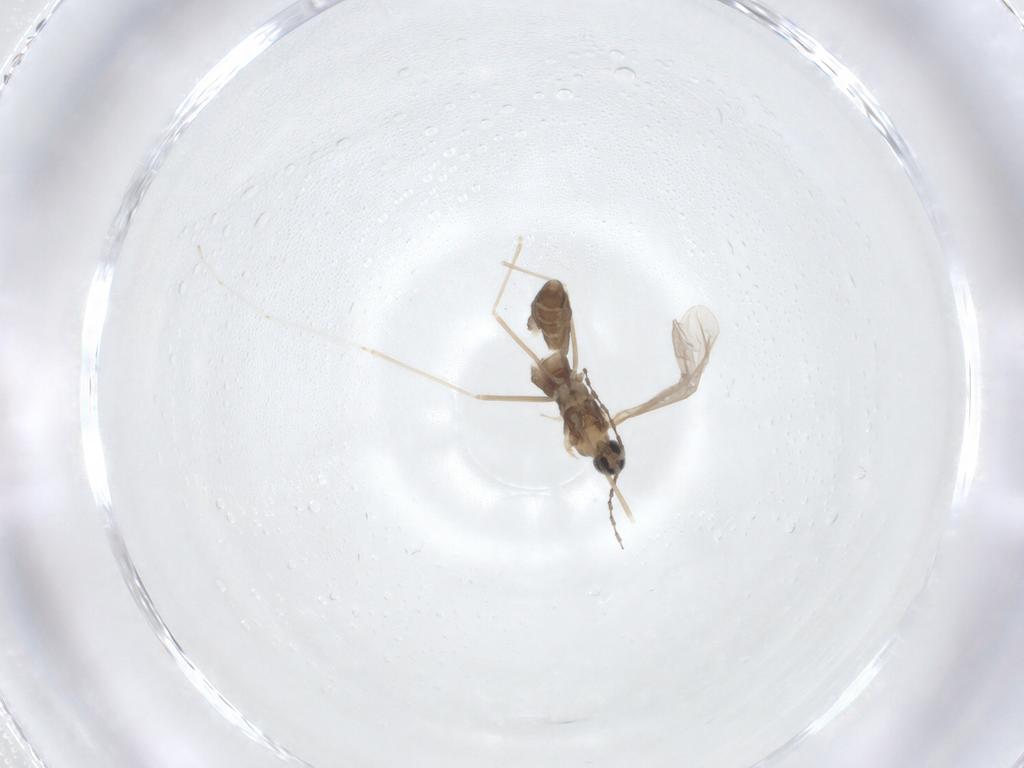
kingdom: Animalia
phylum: Arthropoda
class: Insecta
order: Diptera
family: Cecidomyiidae
